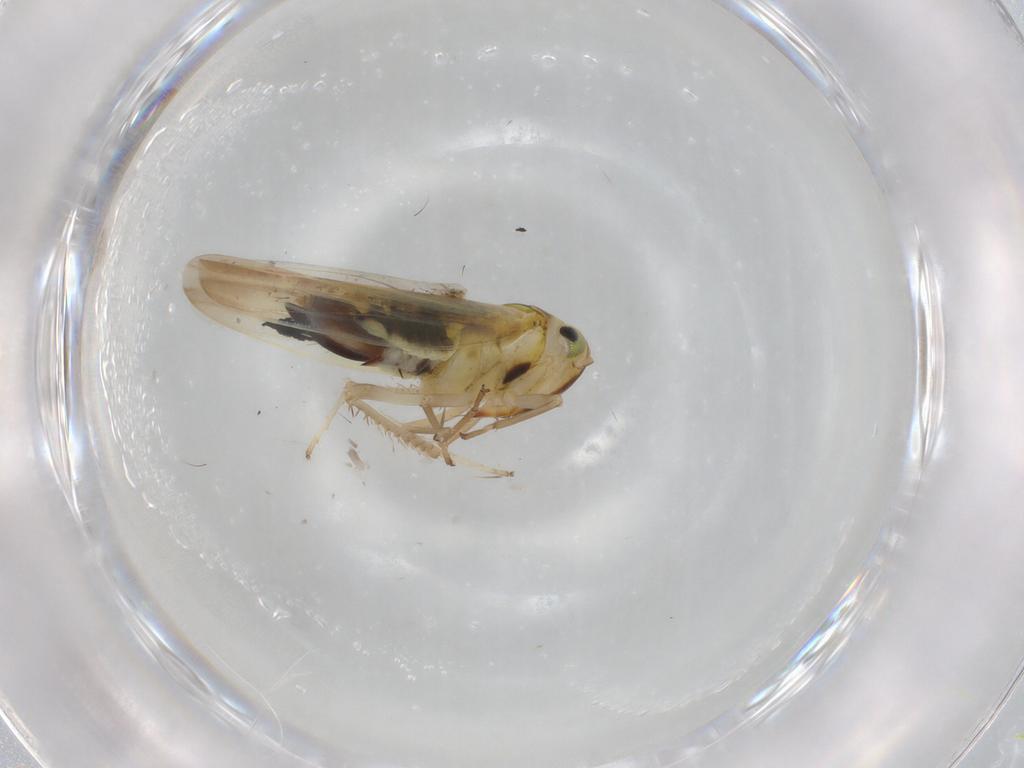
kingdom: Animalia
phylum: Arthropoda
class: Insecta
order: Hemiptera
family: Cicadellidae
